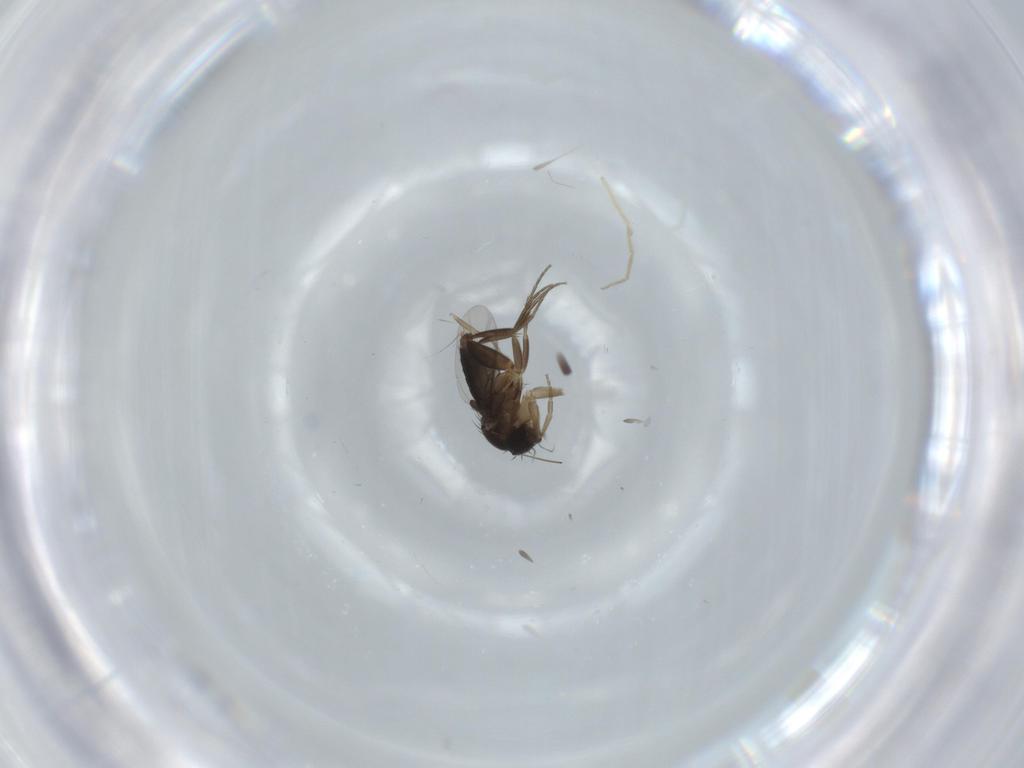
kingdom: Animalia
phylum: Arthropoda
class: Insecta
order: Diptera
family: Phoridae
